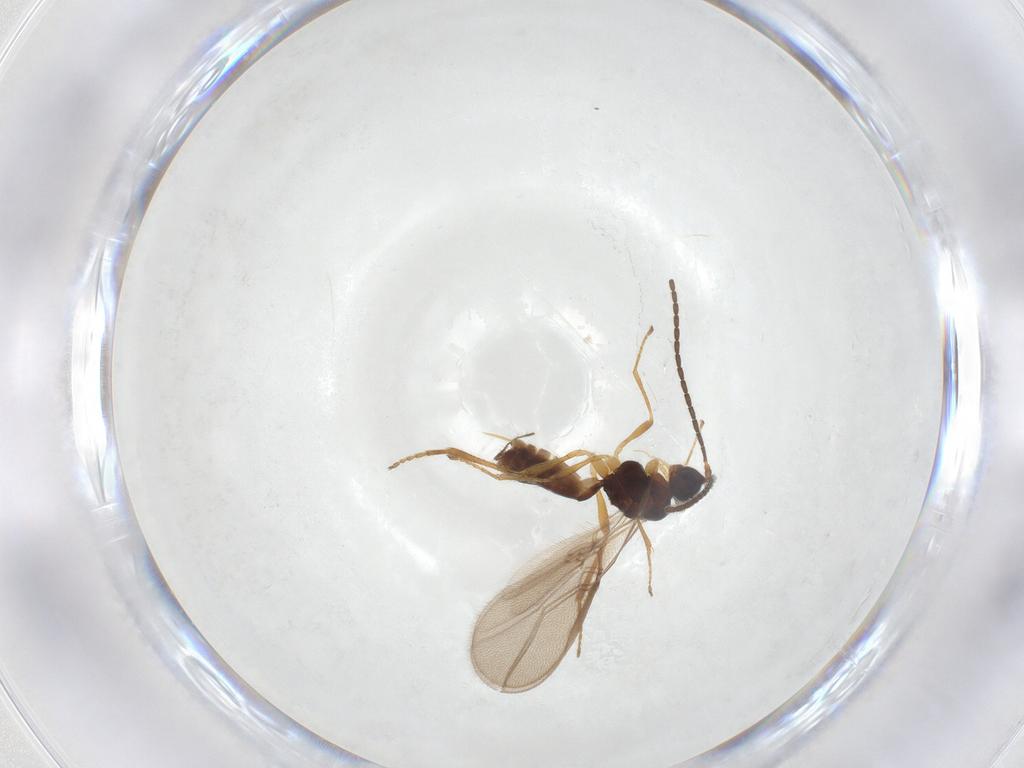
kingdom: Animalia
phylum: Arthropoda
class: Insecta
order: Hymenoptera
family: Braconidae
